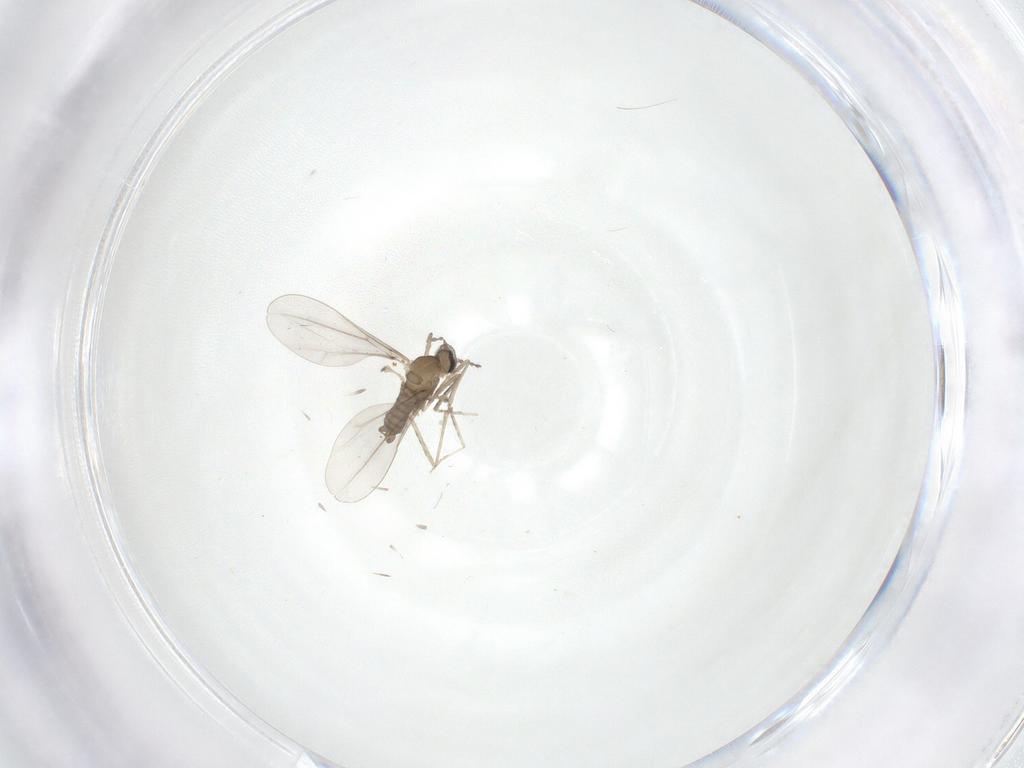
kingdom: Animalia
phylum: Arthropoda
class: Insecta
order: Diptera
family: Cecidomyiidae
